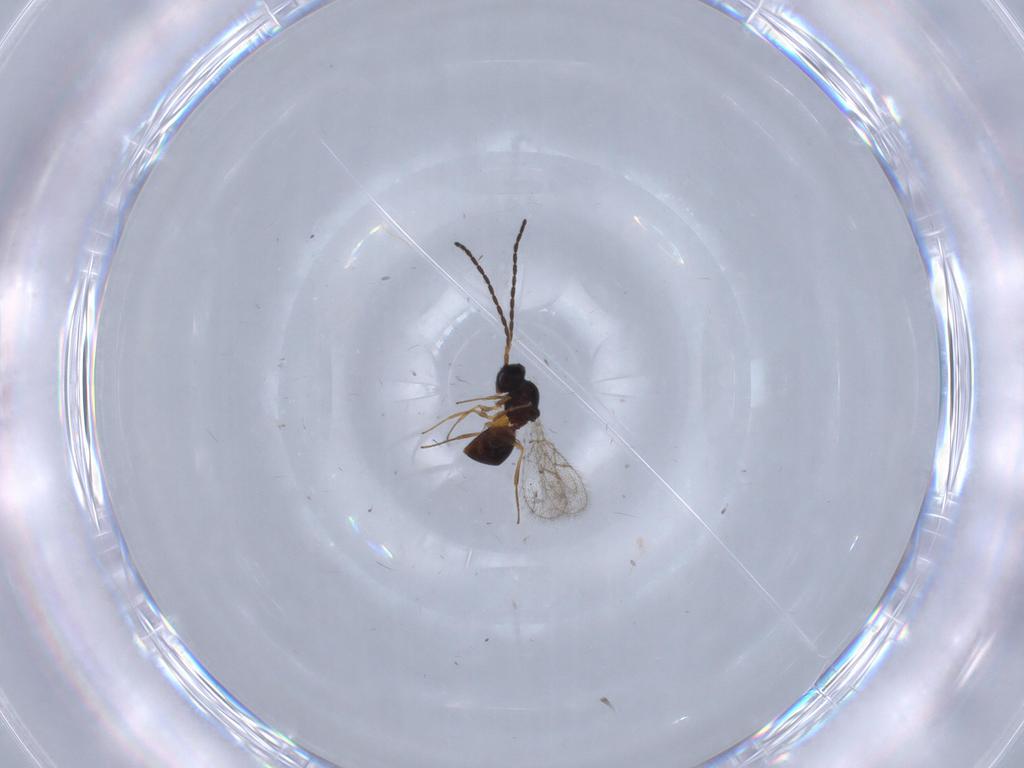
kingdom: Animalia
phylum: Arthropoda
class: Insecta
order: Hymenoptera
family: Figitidae
